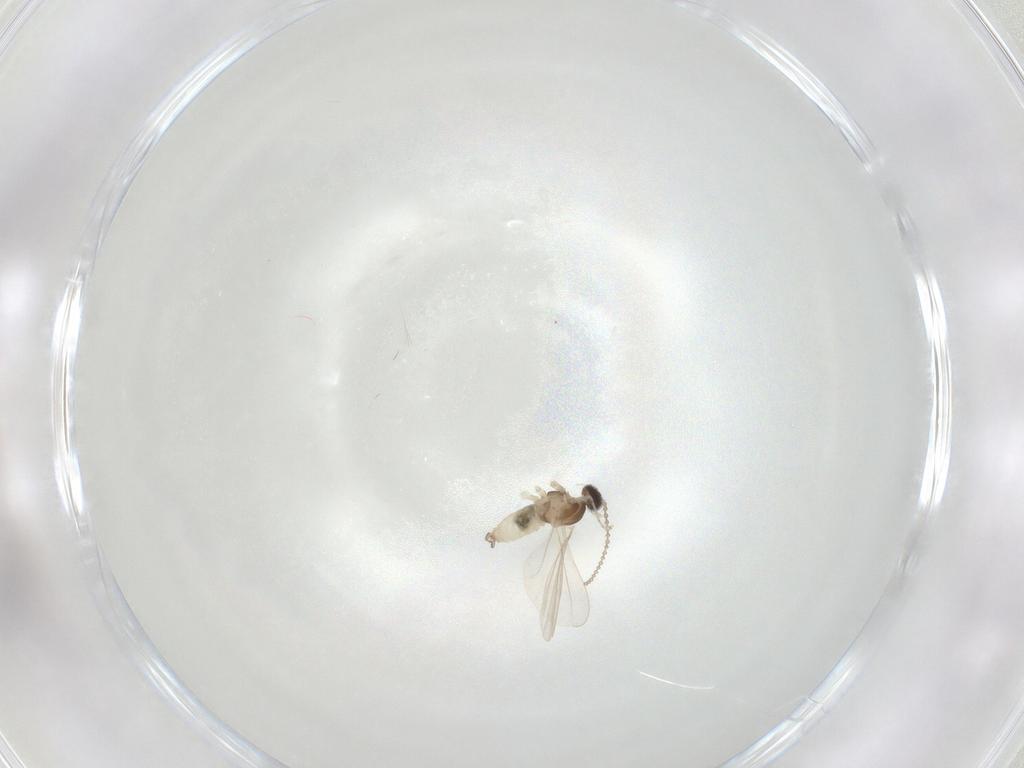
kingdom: Animalia
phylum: Arthropoda
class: Insecta
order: Diptera
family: Cecidomyiidae
